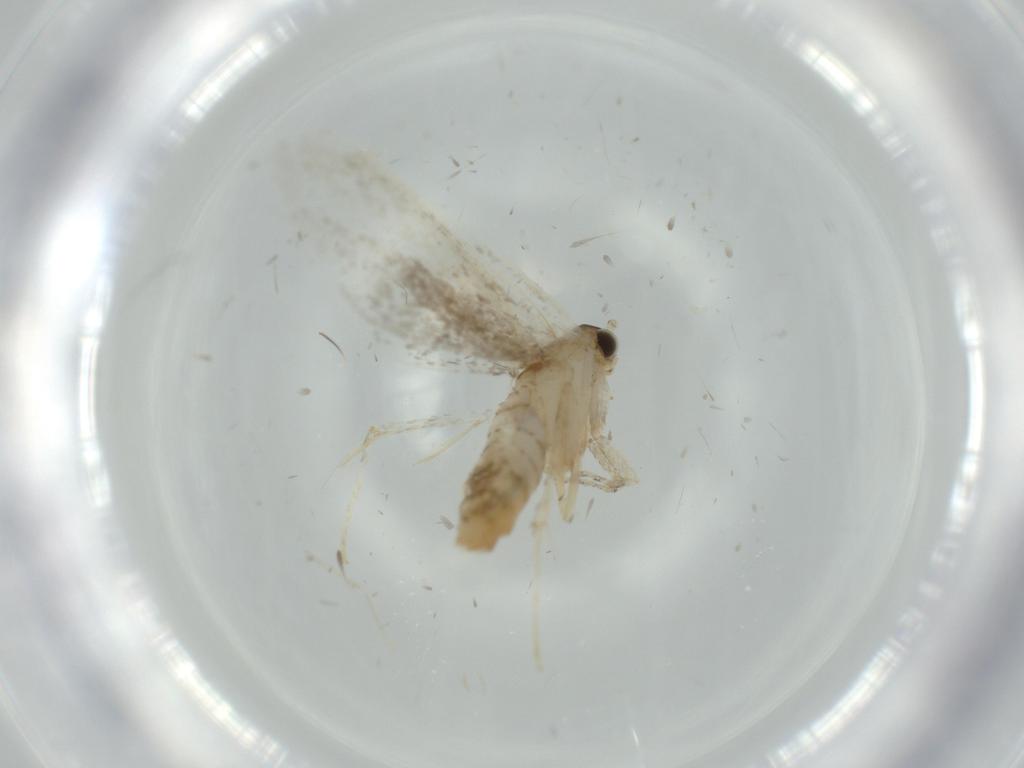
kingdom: Animalia
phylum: Arthropoda
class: Insecta
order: Lepidoptera
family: Tineidae
